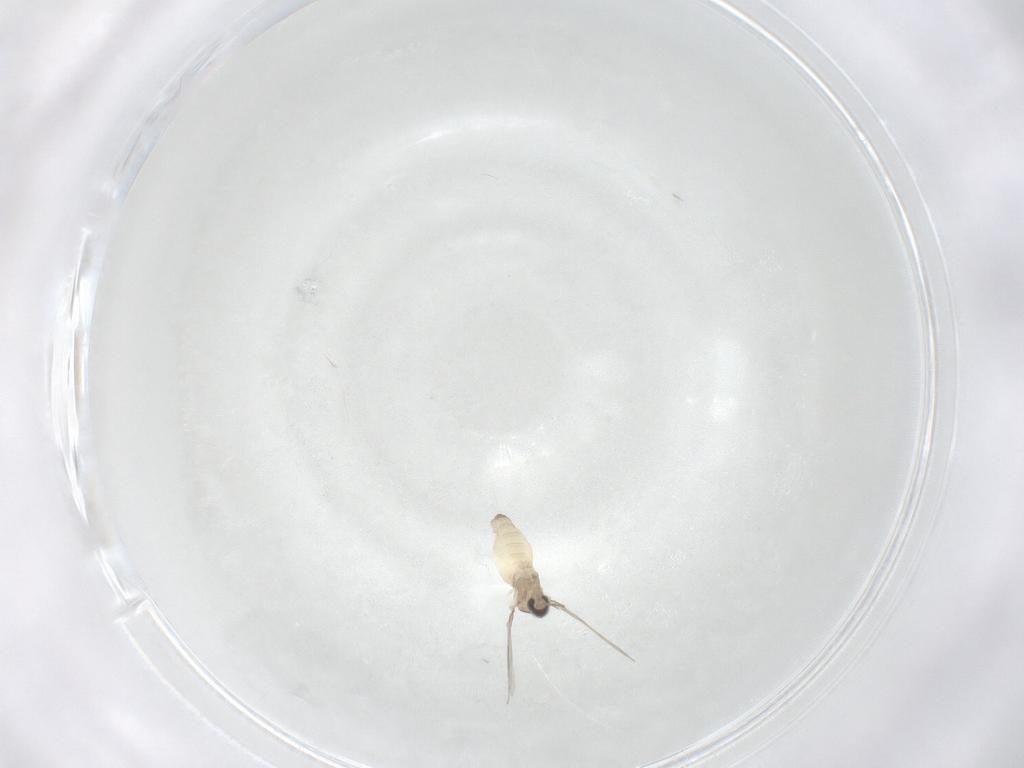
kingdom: Animalia
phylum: Arthropoda
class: Insecta
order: Diptera
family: Cecidomyiidae
